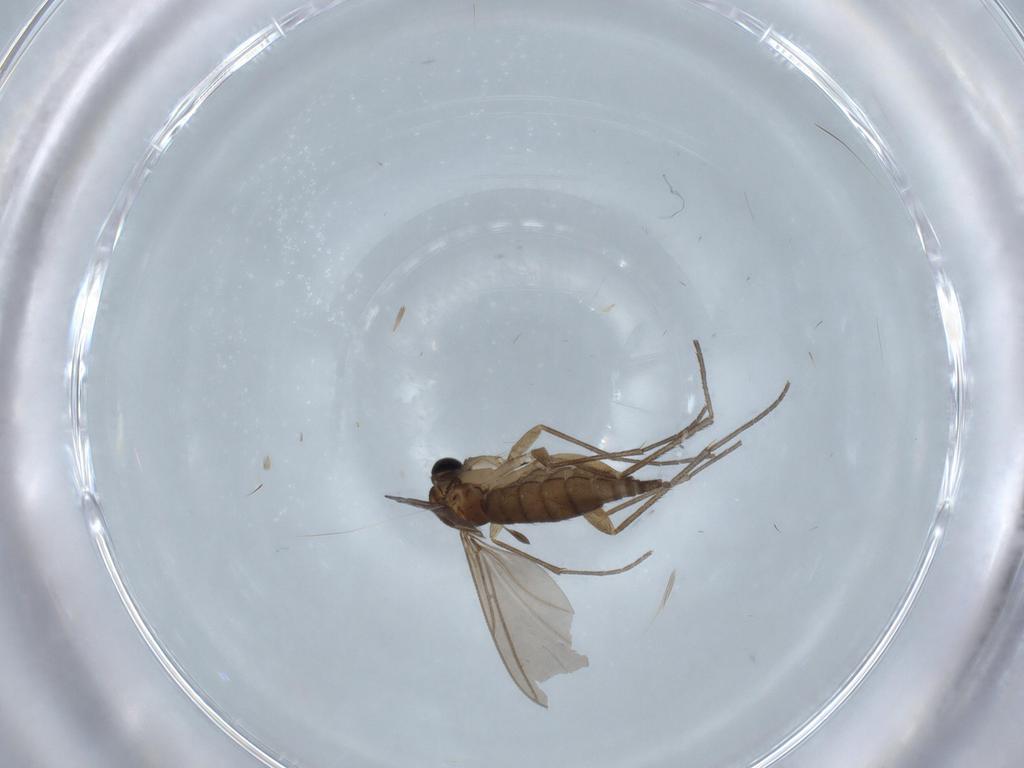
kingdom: Animalia
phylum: Arthropoda
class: Insecta
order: Diptera
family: Sciaridae
